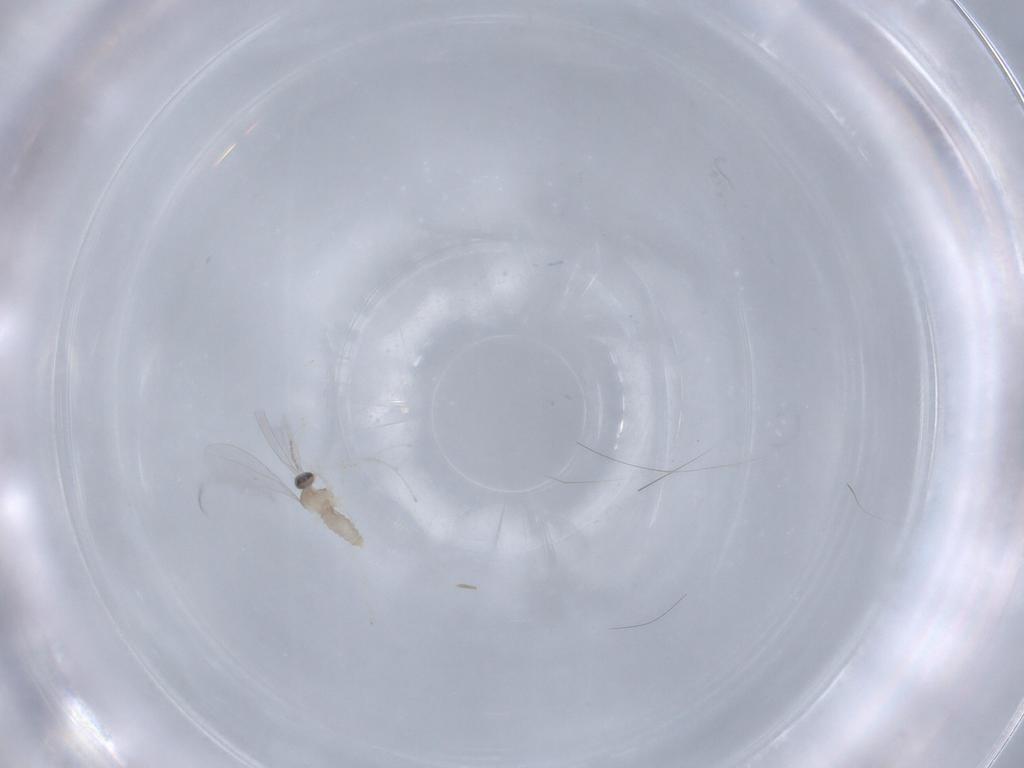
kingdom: Animalia
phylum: Arthropoda
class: Insecta
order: Diptera
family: Cecidomyiidae
